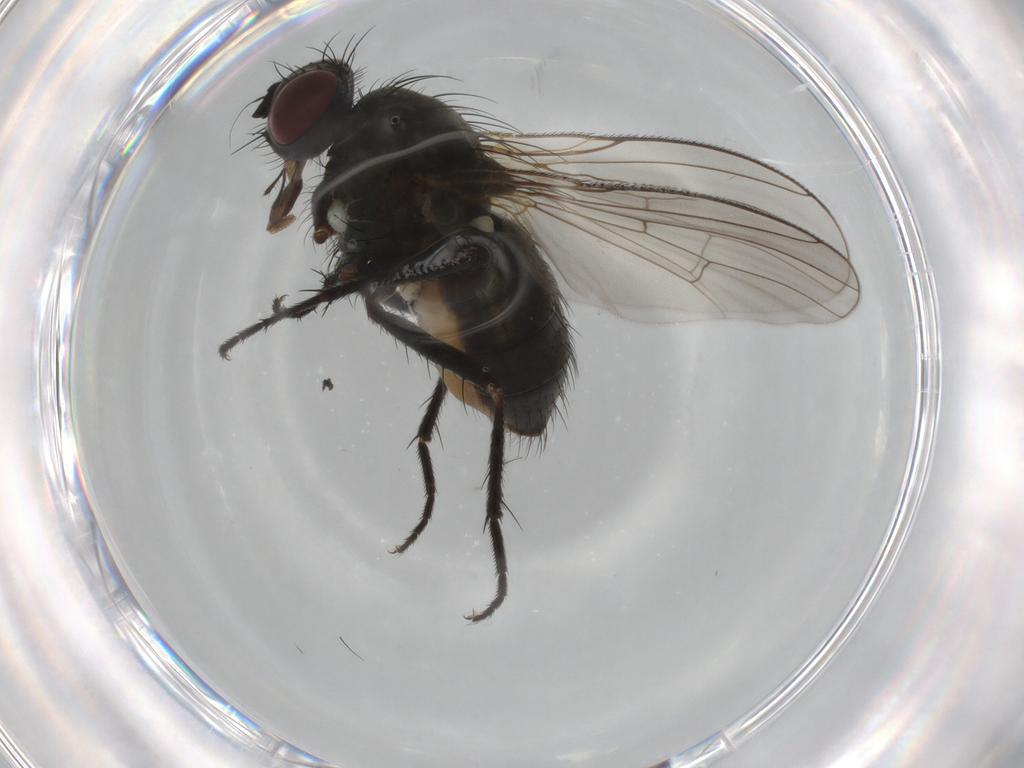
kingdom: Animalia
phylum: Arthropoda
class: Insecta
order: Diptera
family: Muscidae
